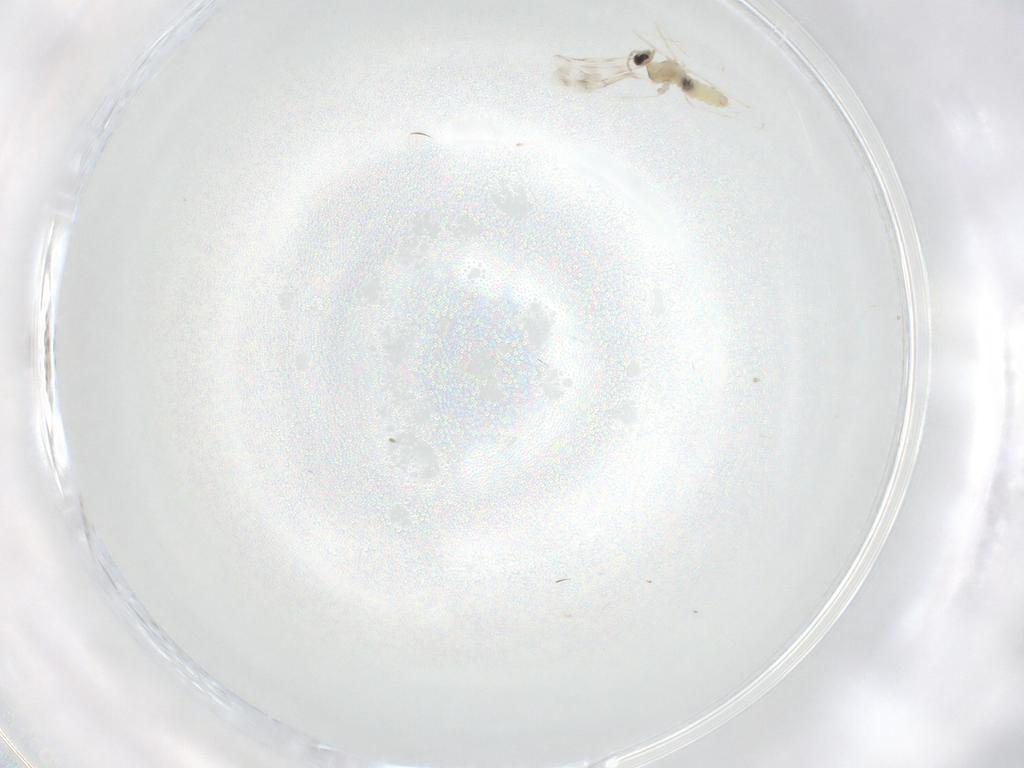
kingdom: Animalia
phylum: Arthropoda
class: Insecta
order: Diptera
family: Cecidomyiidae
